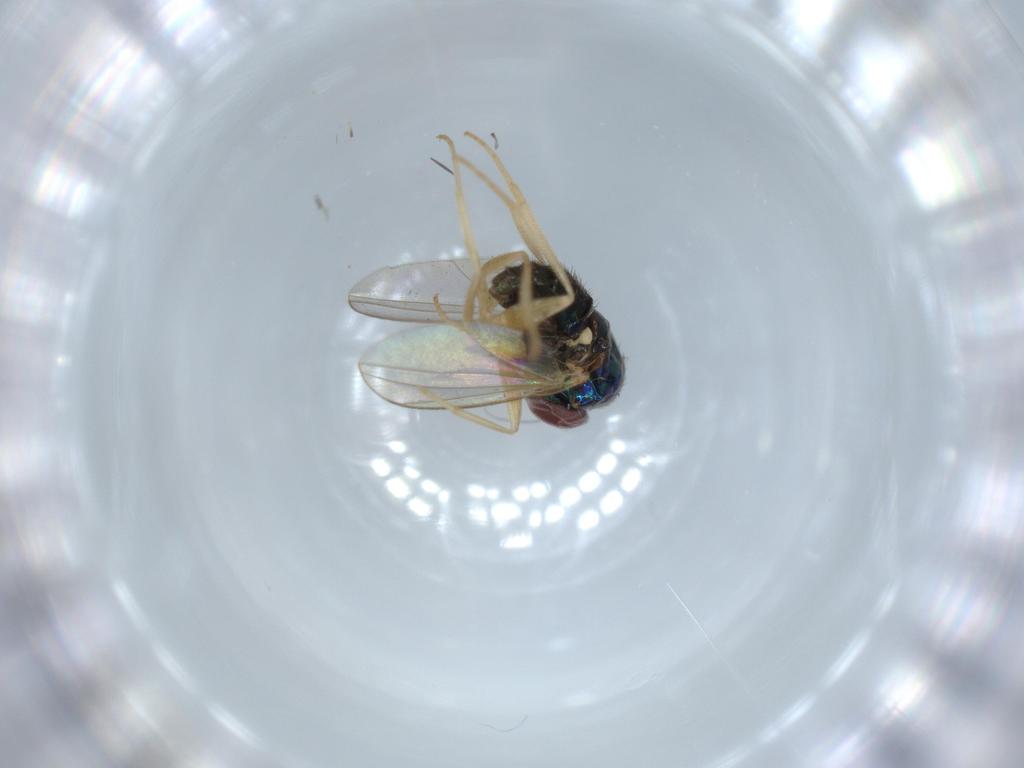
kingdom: Animalia
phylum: Arthropoda
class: Insecta
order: Diptera
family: Dolichopodidae
